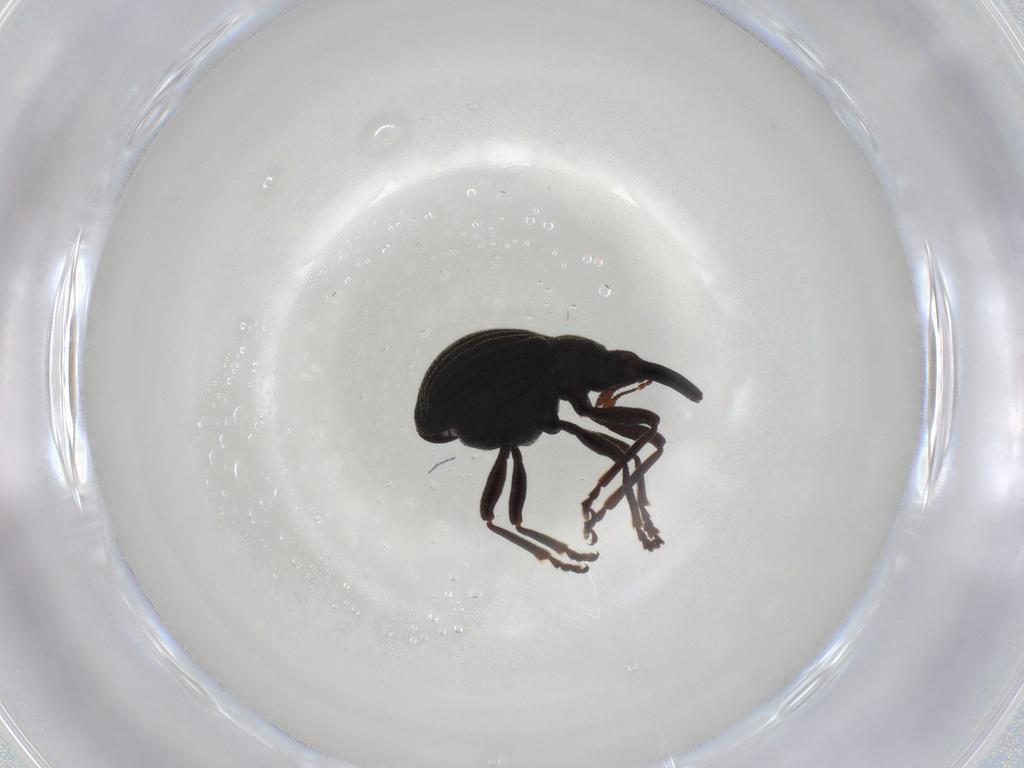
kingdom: Animalia
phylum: Arthropoda
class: Insecta
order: Coleoptera
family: Brentidae
